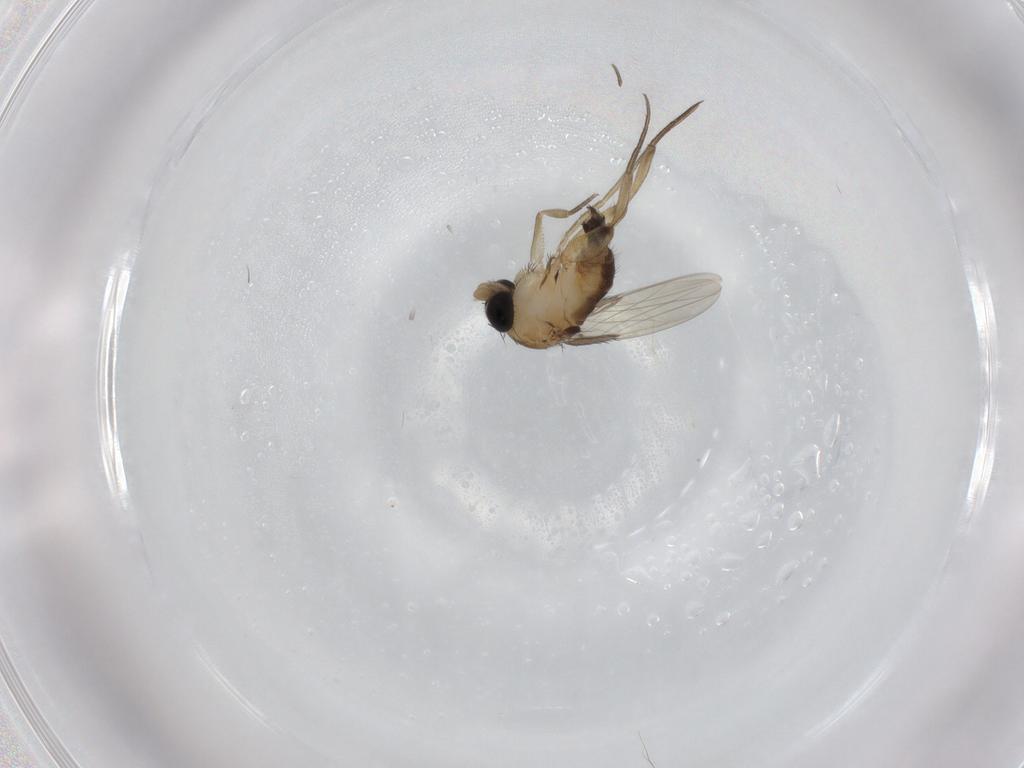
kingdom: Animalia
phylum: Arthropoda
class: Insecta
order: Diptera
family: Phoridae
